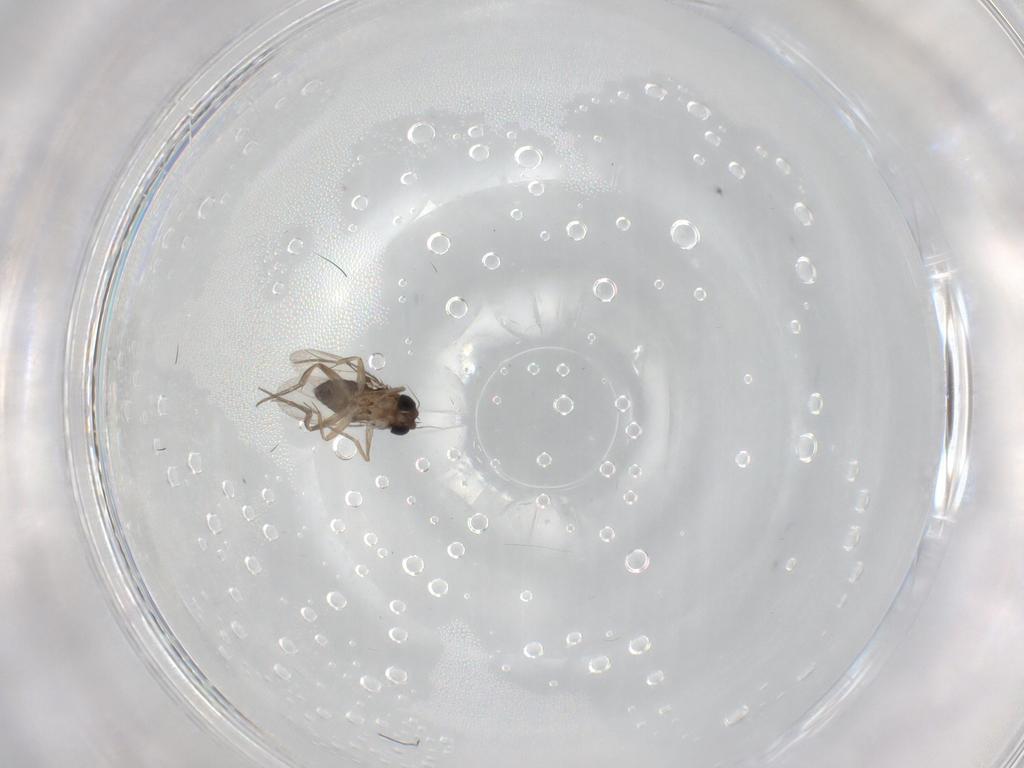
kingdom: Animalia
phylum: Arthropoda
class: Insecta
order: Diptera
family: Phoridae
